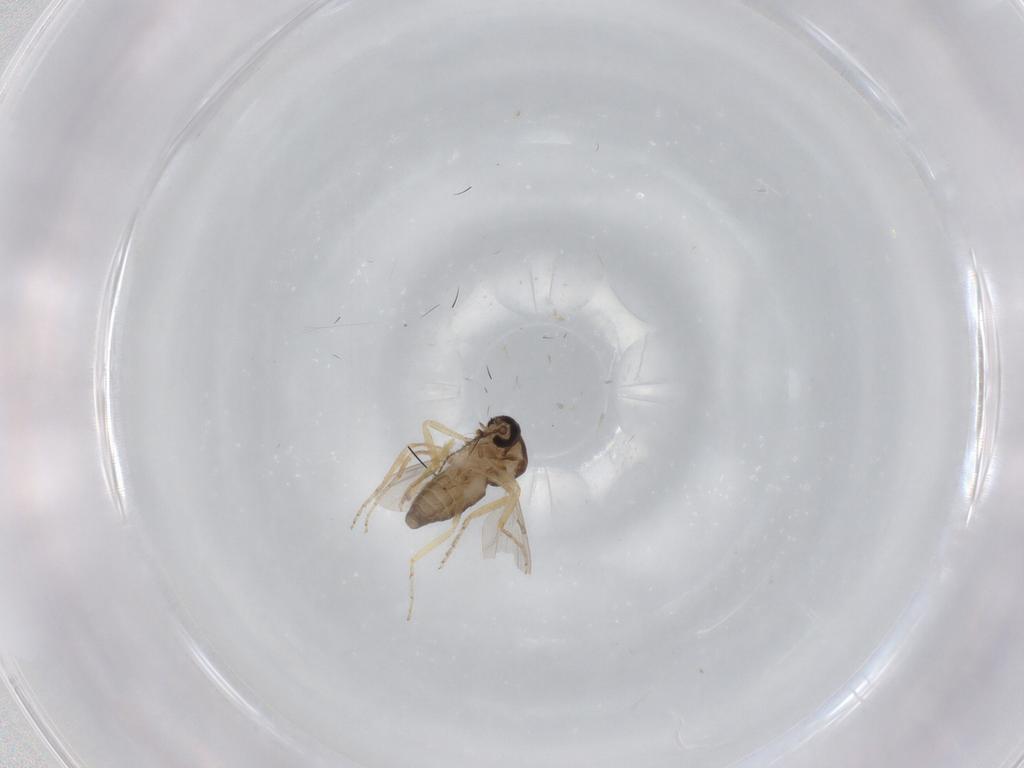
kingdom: Animalia
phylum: Arthropoda
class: Insecta
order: Diptera
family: Ceratopogonidae
